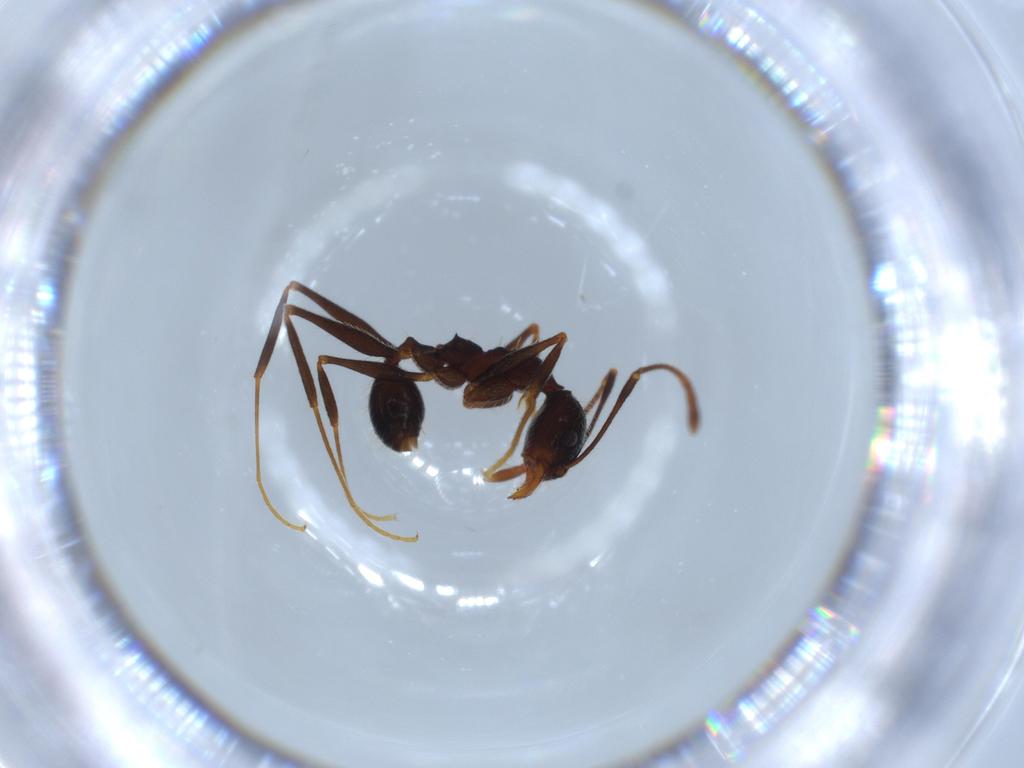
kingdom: Animalia
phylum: Arthropoda
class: Insecta
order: Hymenoptera
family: Formicidae
